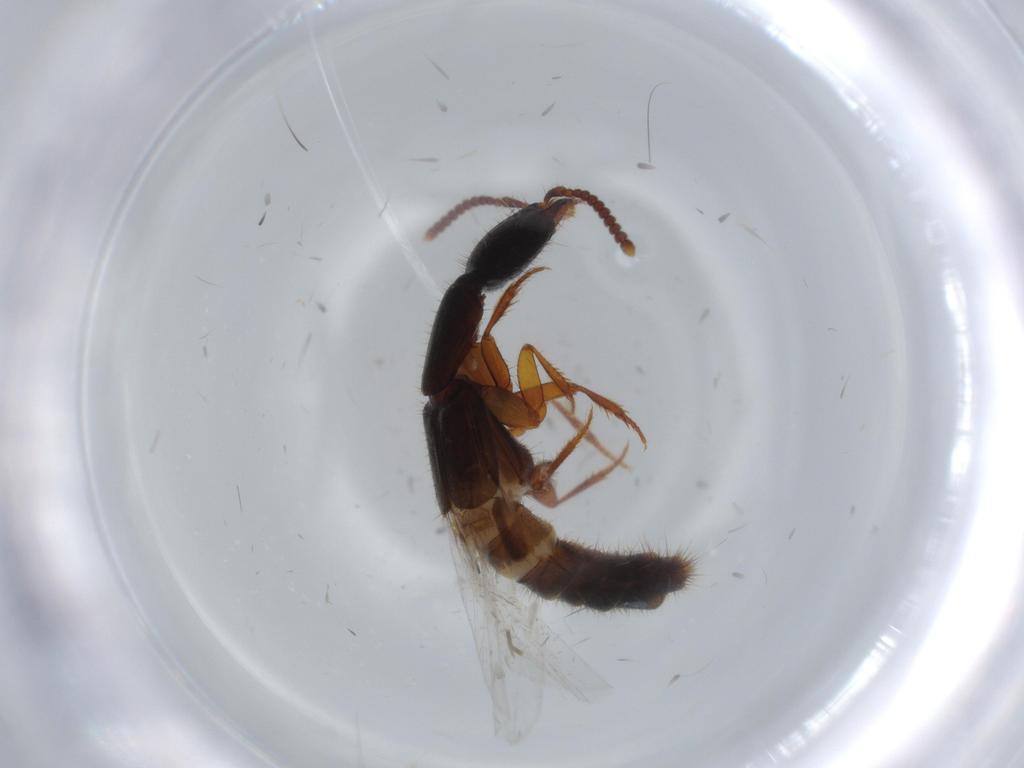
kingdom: Animalia
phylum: Arthropoda
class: Insecta
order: Coleoptera
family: Staphylinidae
